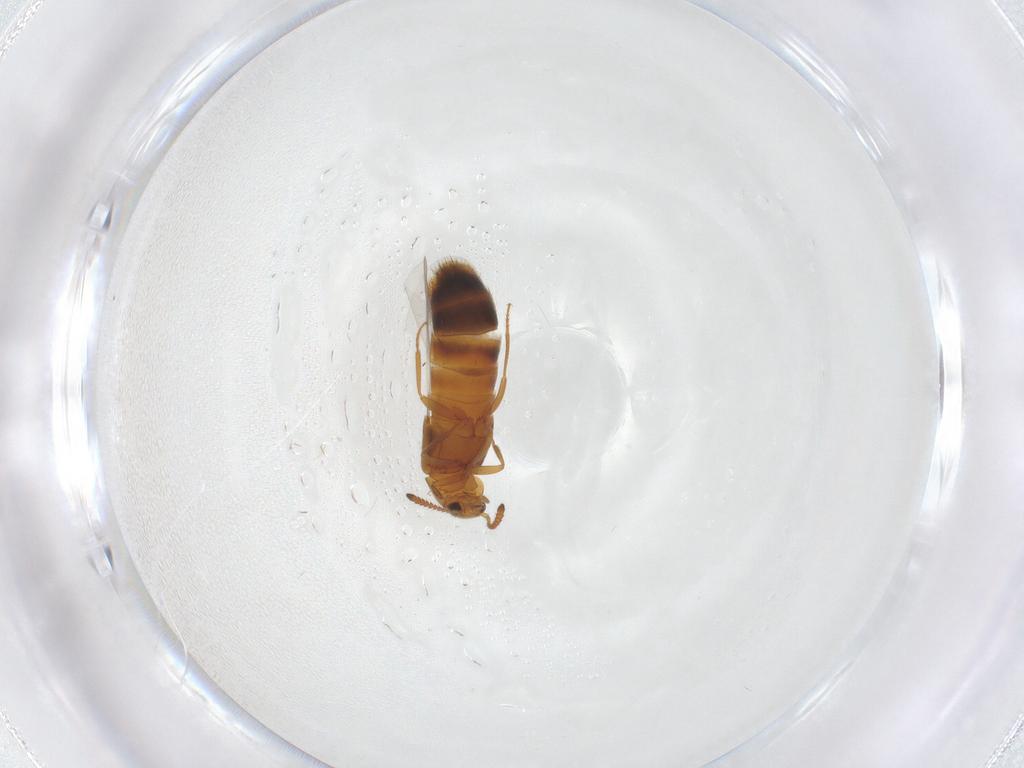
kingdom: Animalia
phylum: Arthropoda
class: Insecta
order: Coleoptera
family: Staphylinidae
